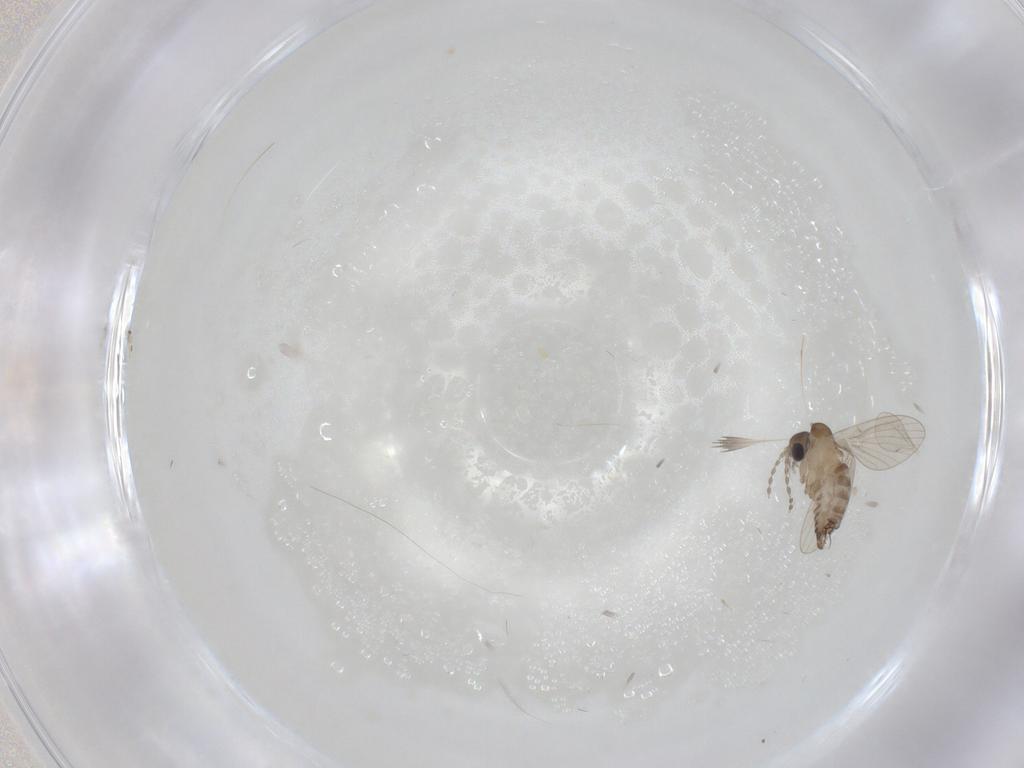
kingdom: Animalia
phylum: Arthropoda
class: Insecta
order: Diptera
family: Cecidomyiidae
